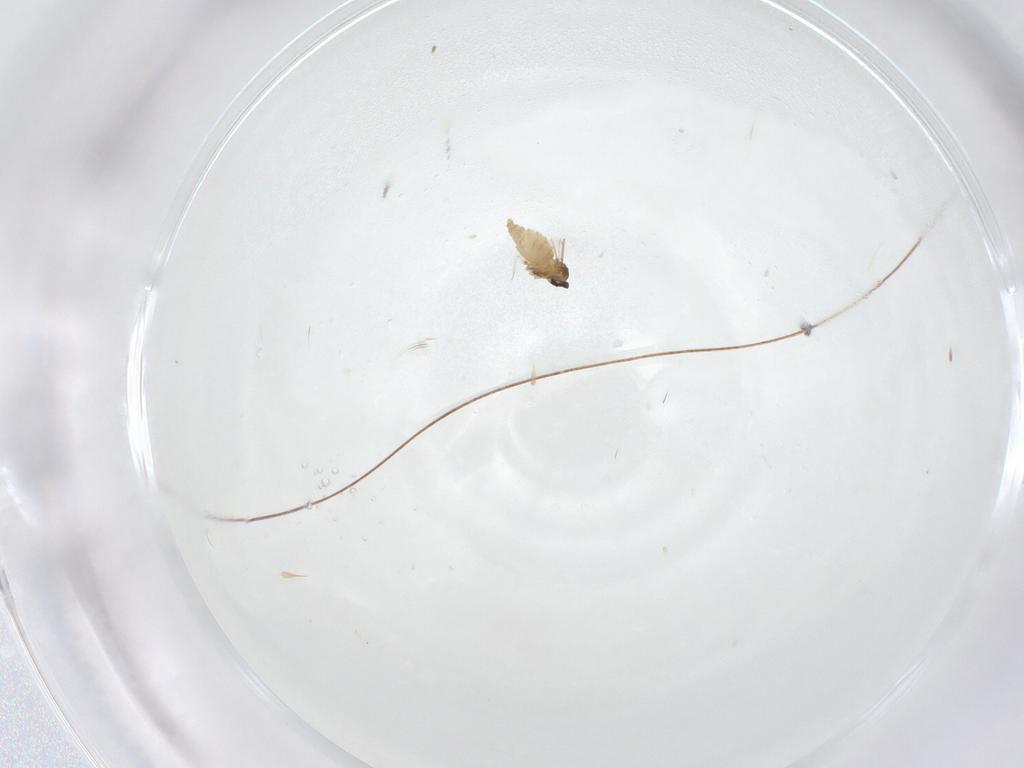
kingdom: Animalia
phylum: Arthropoda
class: Insecta
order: Diptera
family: Cecidomyiidae
